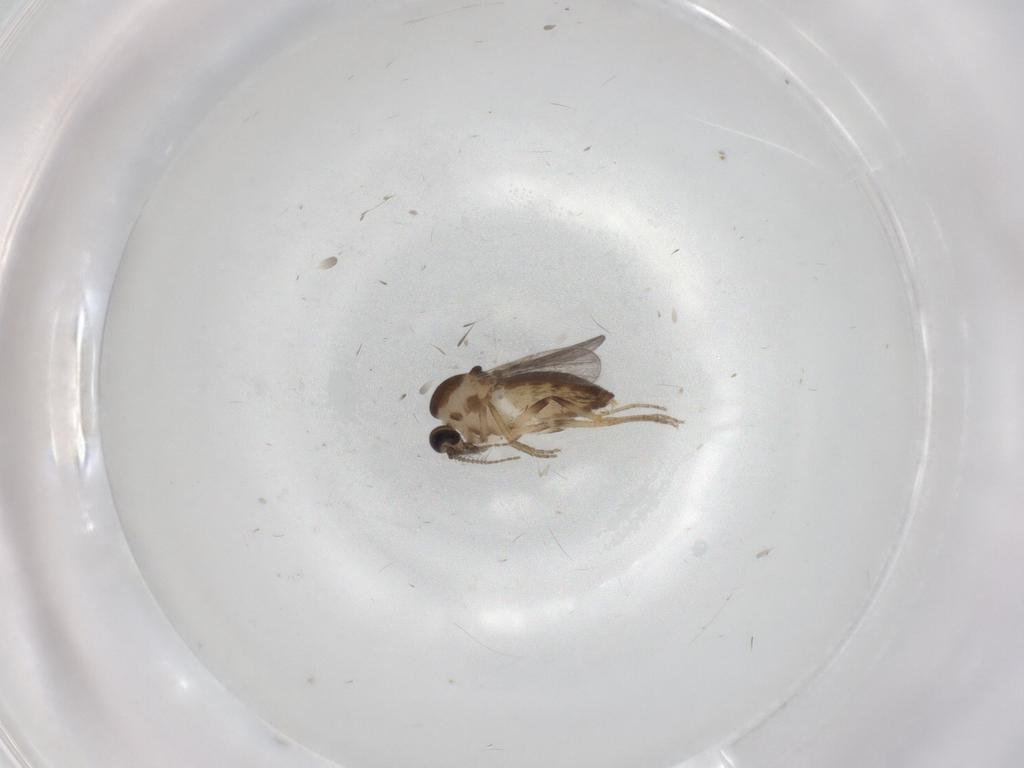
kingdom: Animalia
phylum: Arthropoda
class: Insecta
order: Diptera
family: Ceratopogonidae
